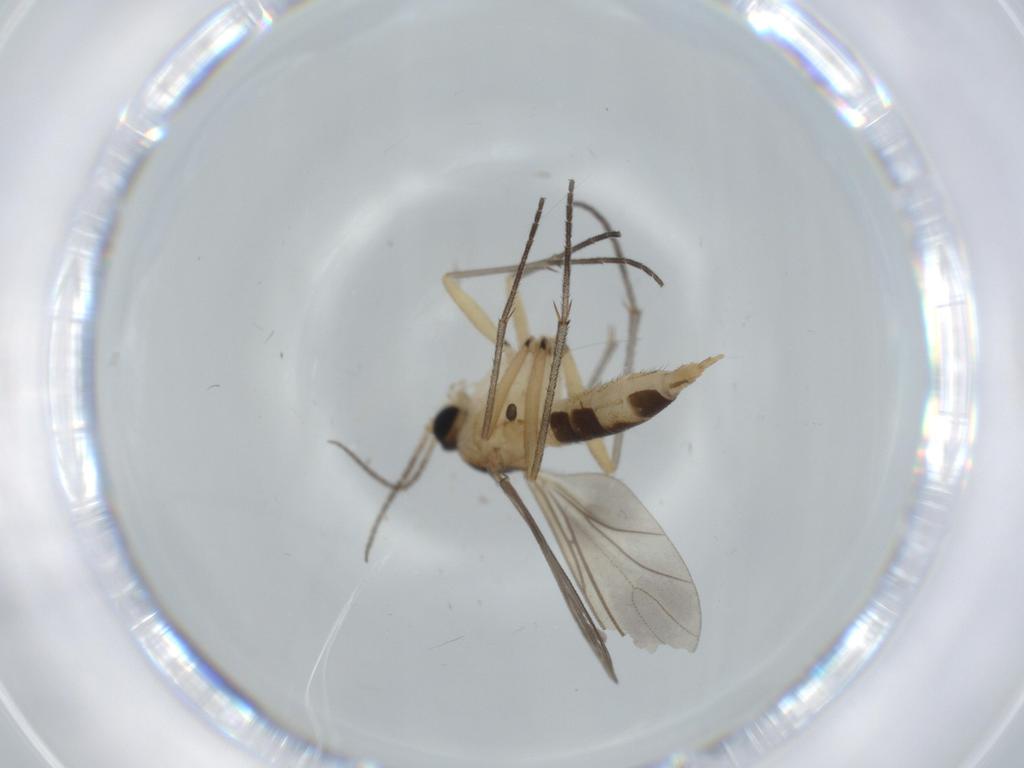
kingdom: Animalia
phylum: Arthropoda
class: Insecta
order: Diptera
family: Sciaridae
